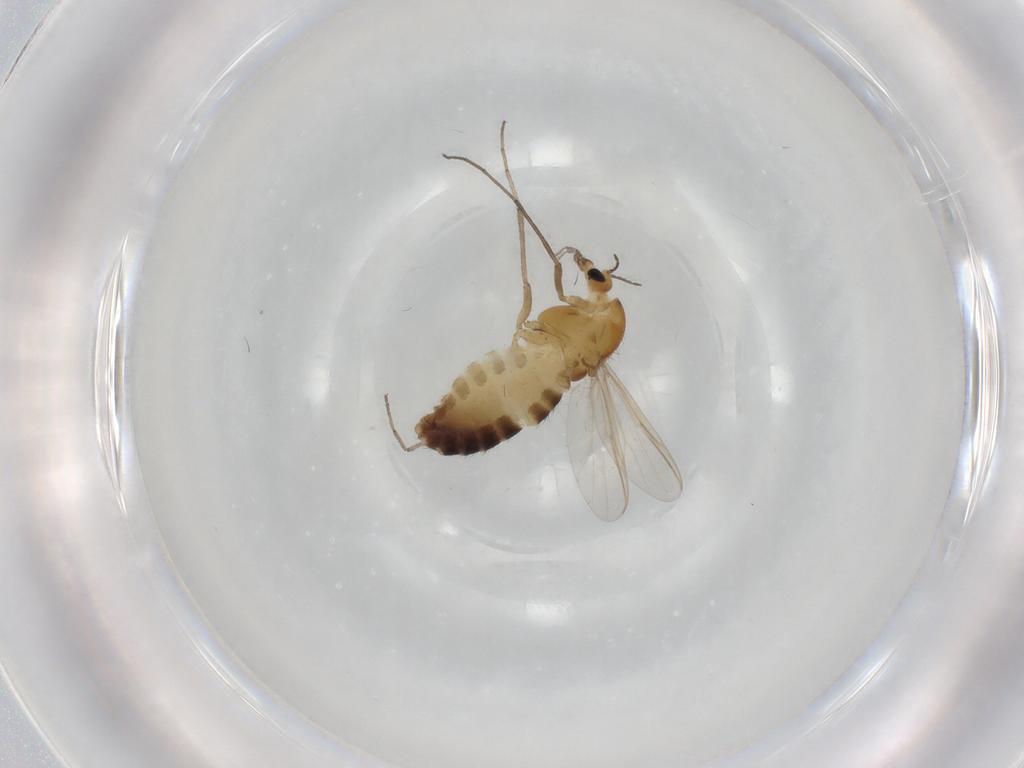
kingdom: Animalia
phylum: Arthropoda
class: Insecta
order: Diptera
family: Chironomidae
